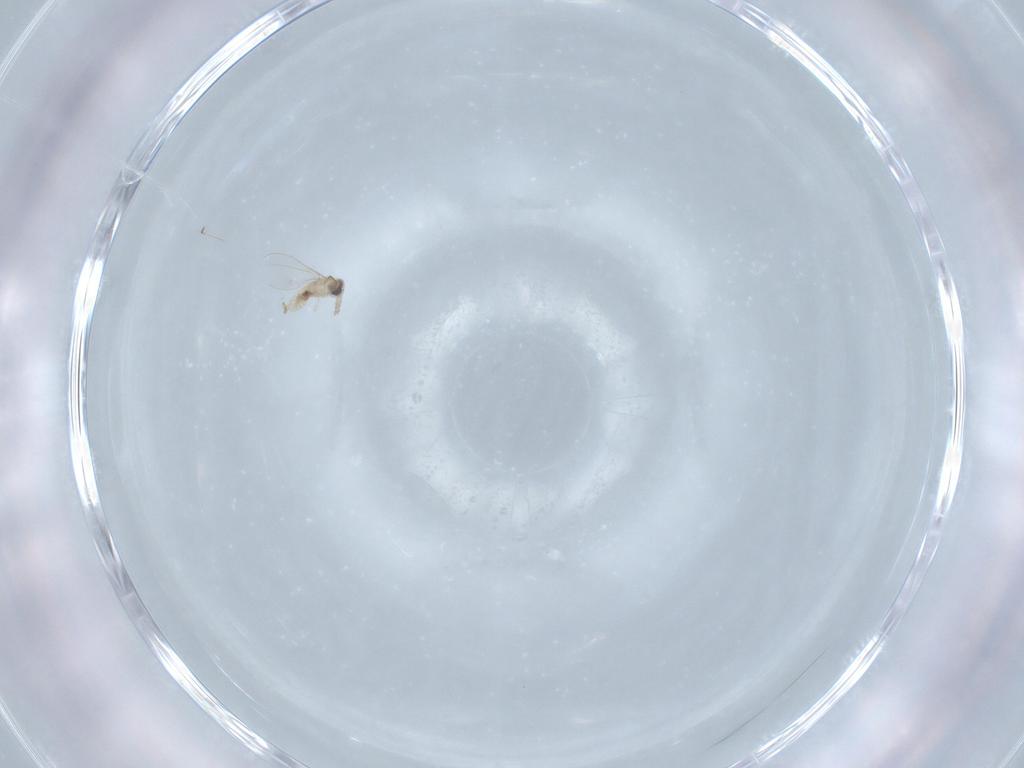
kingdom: Animalia
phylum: Arthropoda
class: Insecta
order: Diptera
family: Cecidomyiidae
